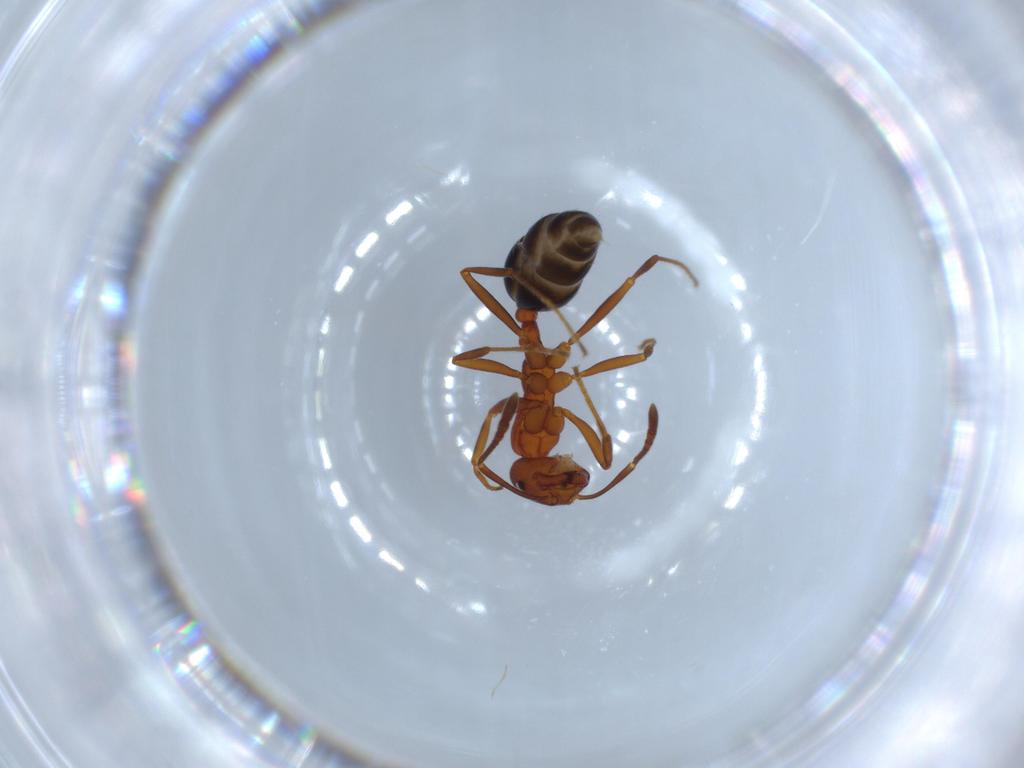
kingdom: Animalia
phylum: Arthropoda
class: Insecta
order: Hymenoptera
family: Formicidae
